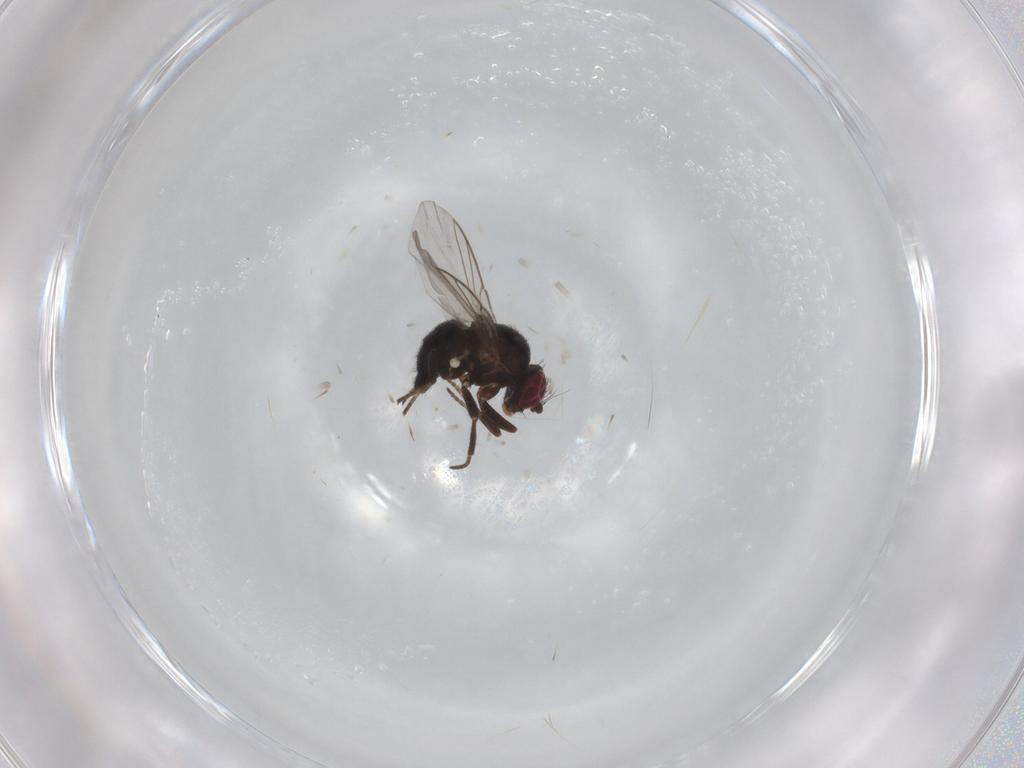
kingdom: Animalia
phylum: Arthropoda
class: Insecta
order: Diptera
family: Agromyzidae
